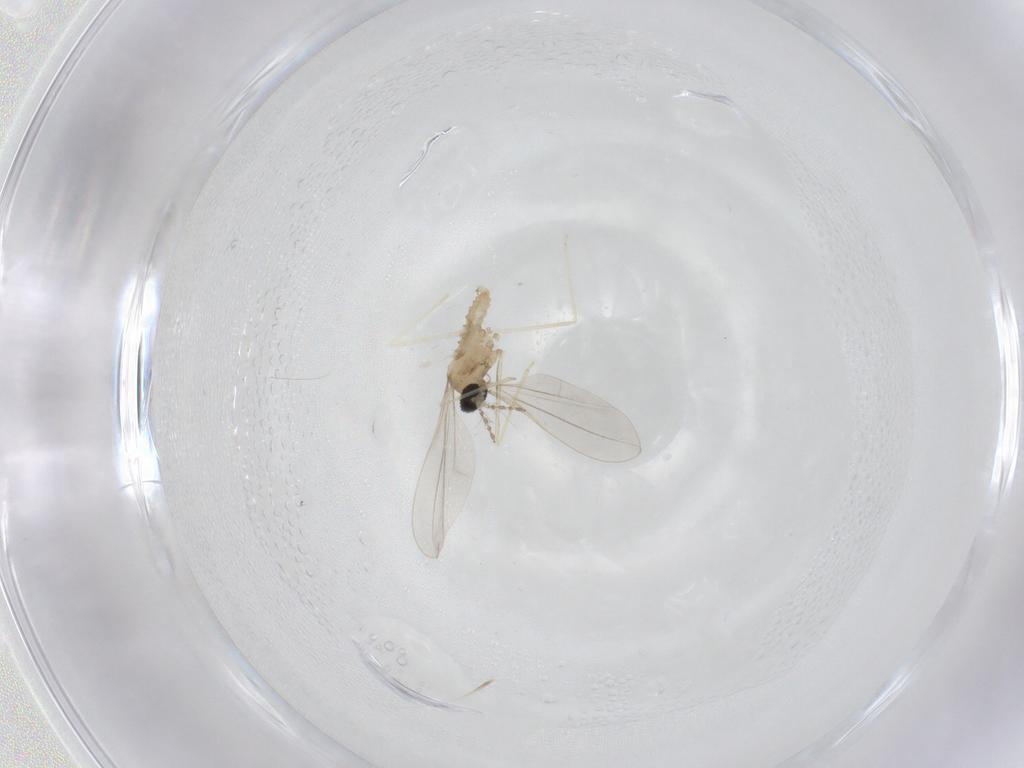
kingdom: Animalia
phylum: Arthropoda
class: Insecta
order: Diptera
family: Cecidomyiidae
